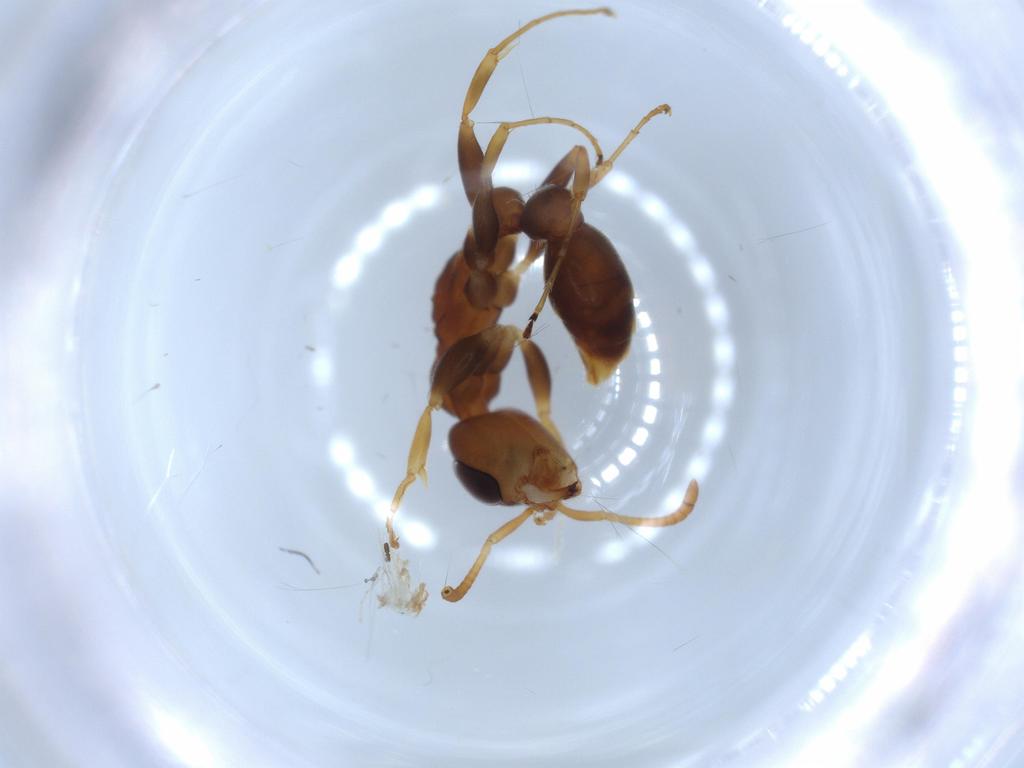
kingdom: Animalia
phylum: Arthropoda
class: Insecta
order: Hymenoptera
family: Formicidae
